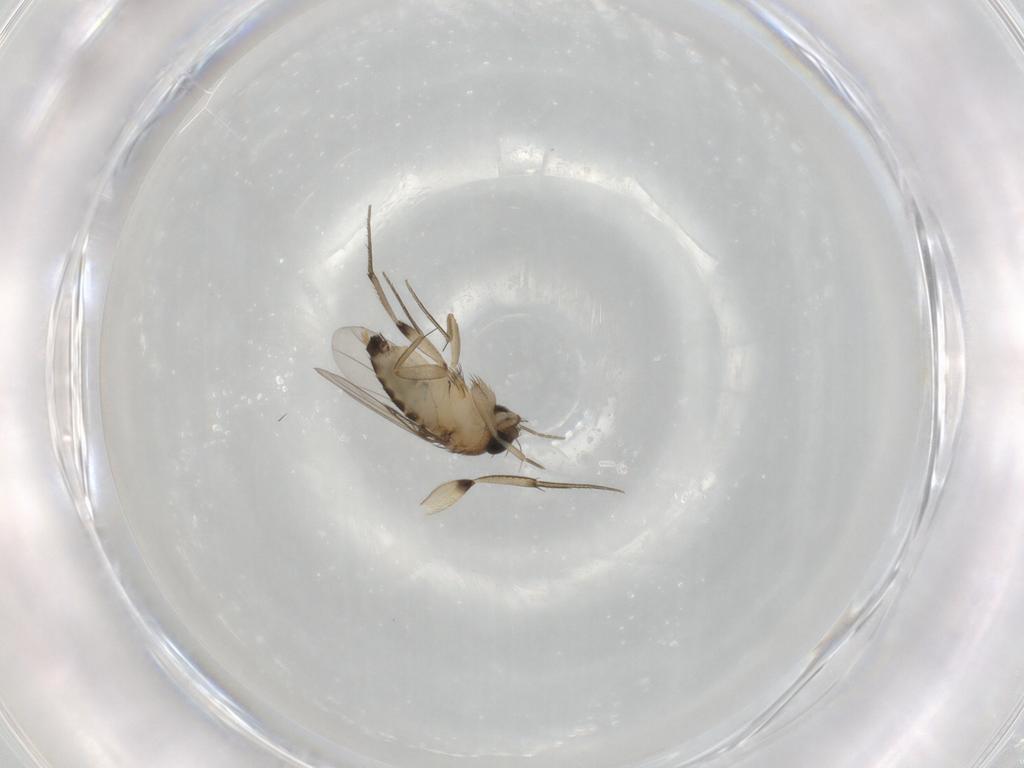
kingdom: Animalia
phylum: Arthropoda
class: Insecta
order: Diptera
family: Phoridae
